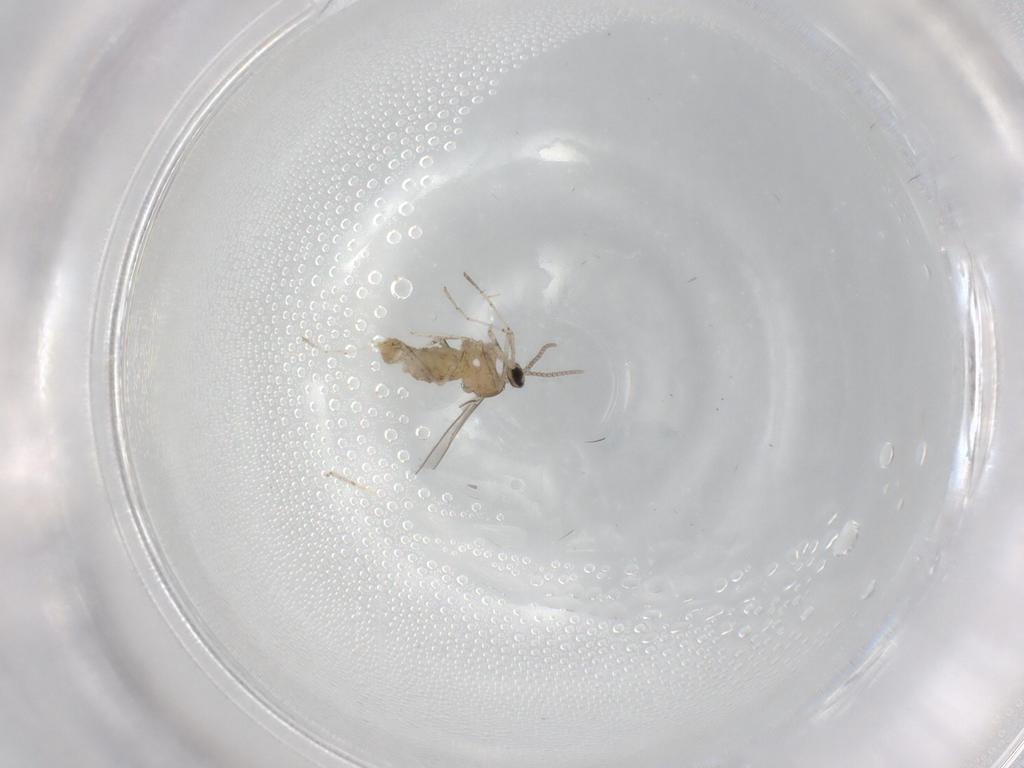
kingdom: Animalia
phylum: Arthropoda
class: Insecta
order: Diptera
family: Cecidomyiidae
